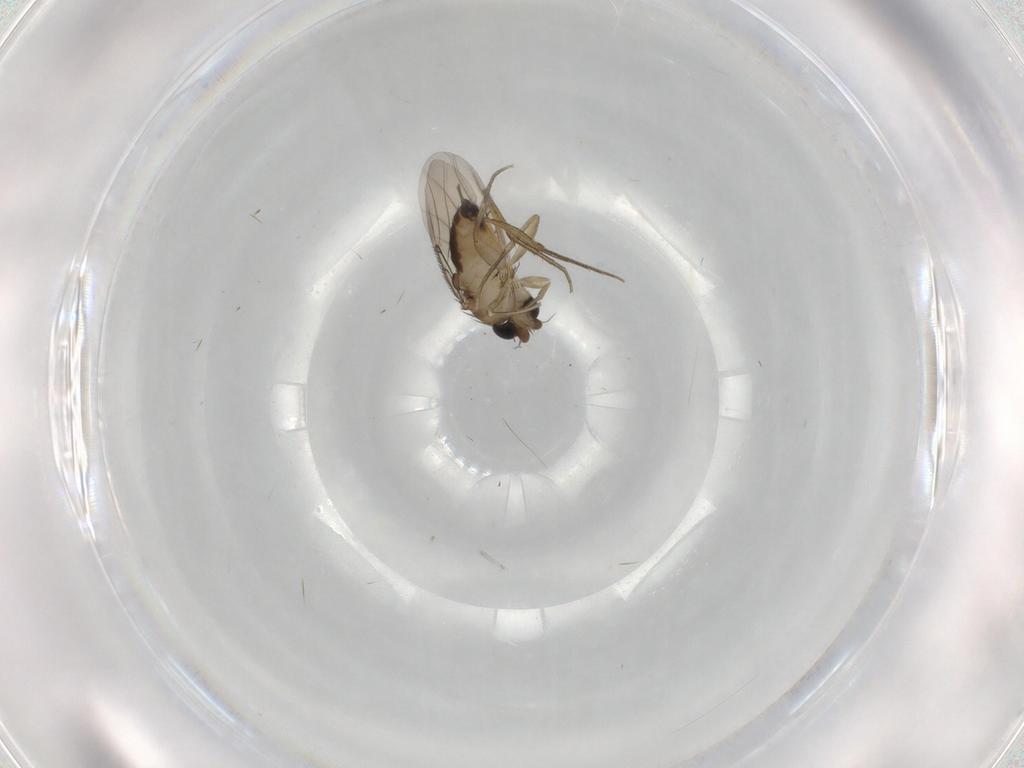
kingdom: Animalia
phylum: Arthropoda
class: Insecta
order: Diptera
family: Phoridae
